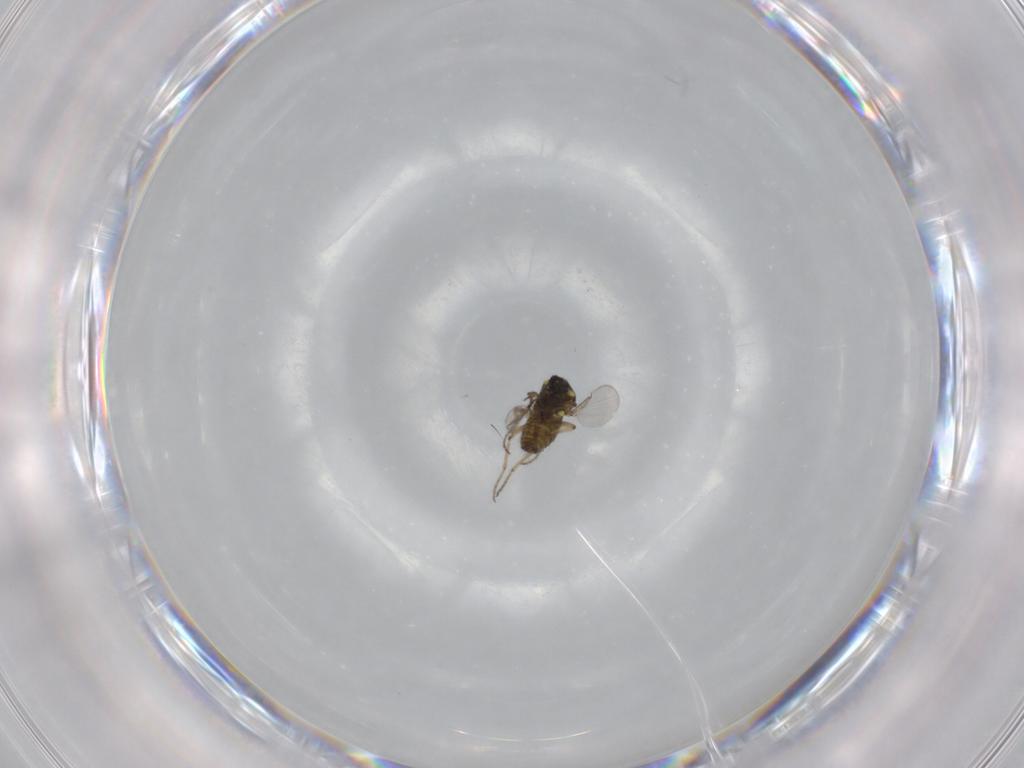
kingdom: Animalia
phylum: Arthropoda
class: Insecta
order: Diptera
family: Ceratopogonidae
